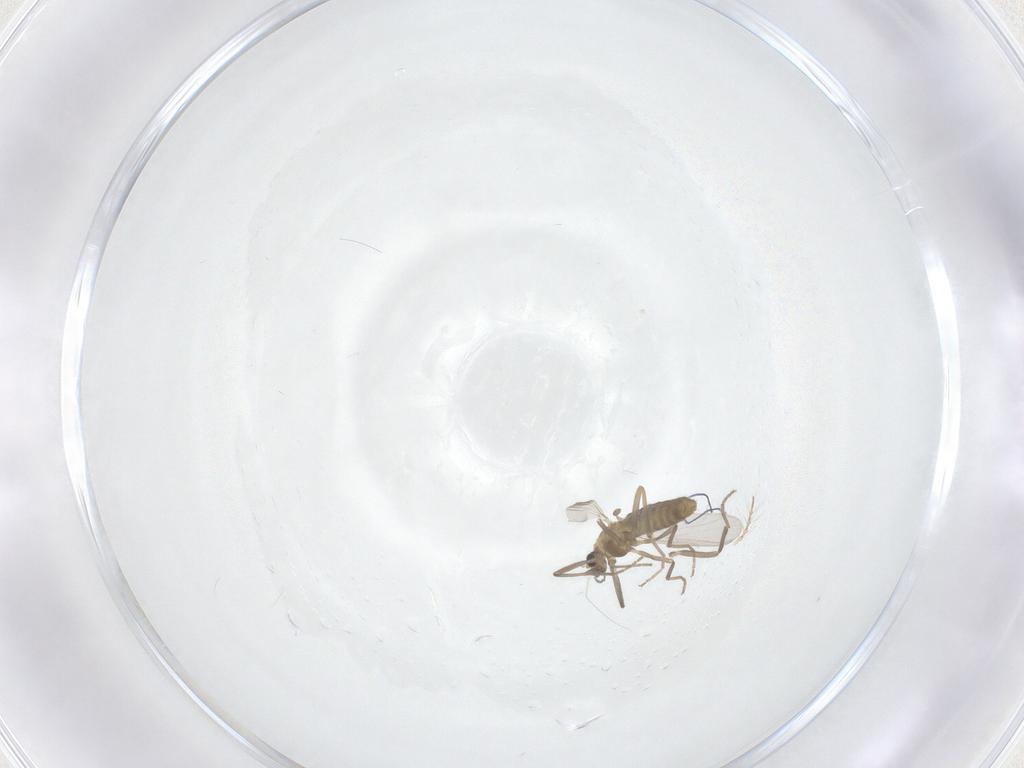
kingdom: Animalia
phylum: Arthropoda
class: Insecta
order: Diptera
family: Chironomidae
